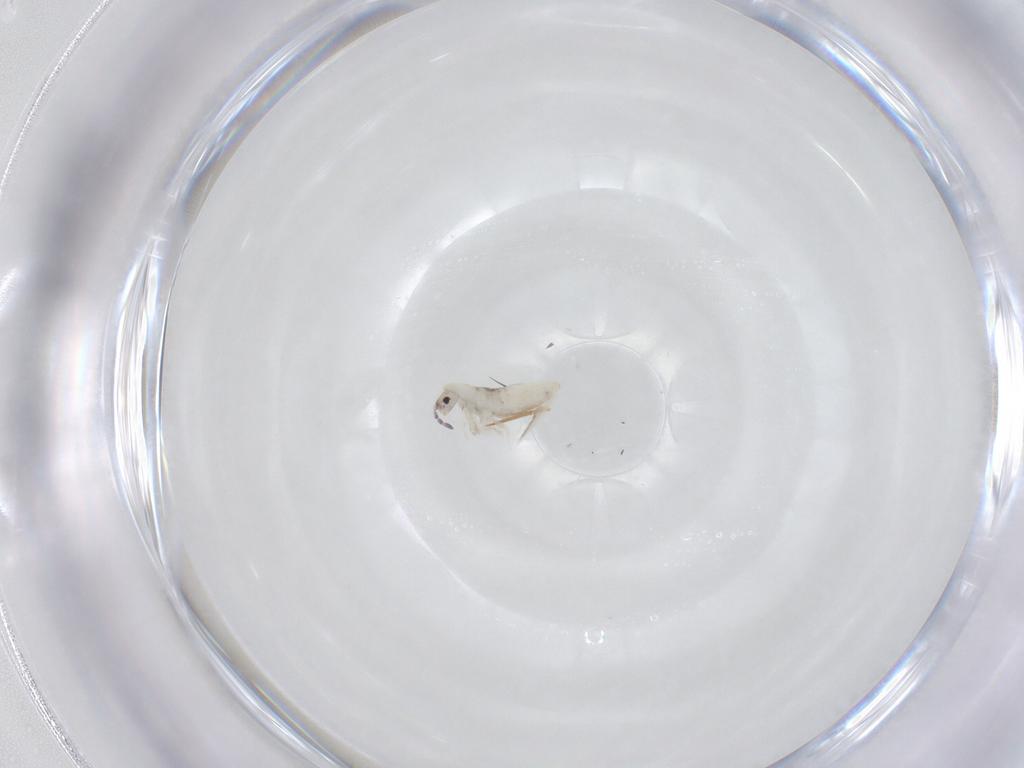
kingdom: Animalia
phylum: Arthropoda
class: Collembola
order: Entomobryomorpha
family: Entomobryidae
